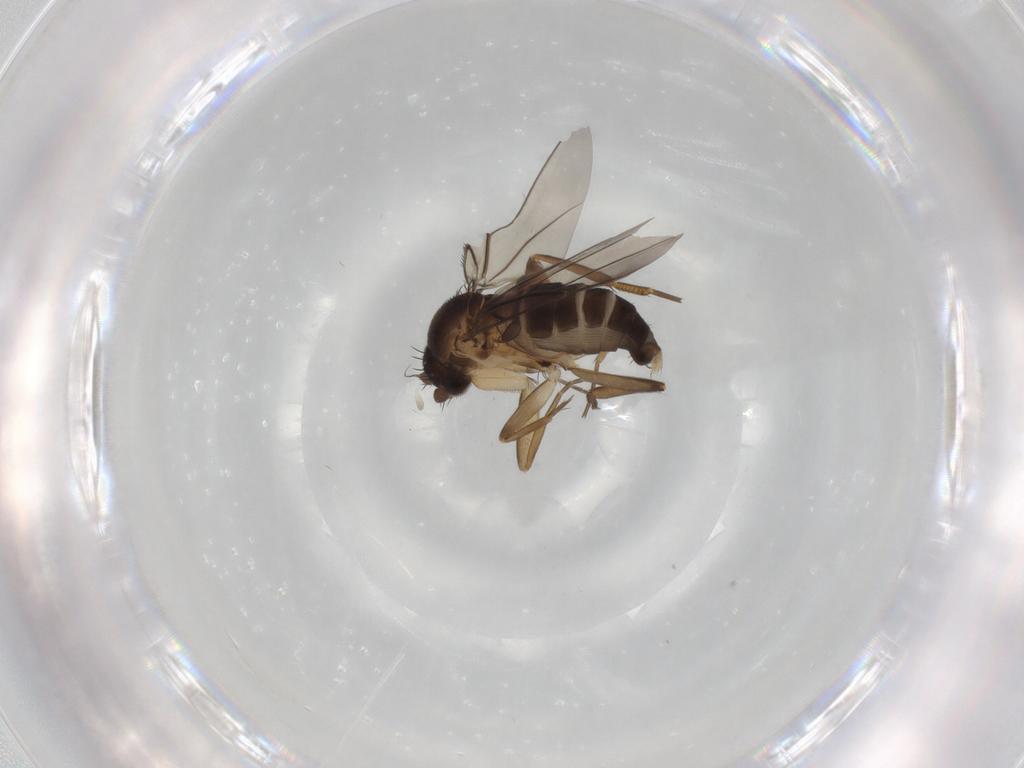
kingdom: Animalia
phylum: Arthropoda
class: Insecta
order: Diptera
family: Phoridae
